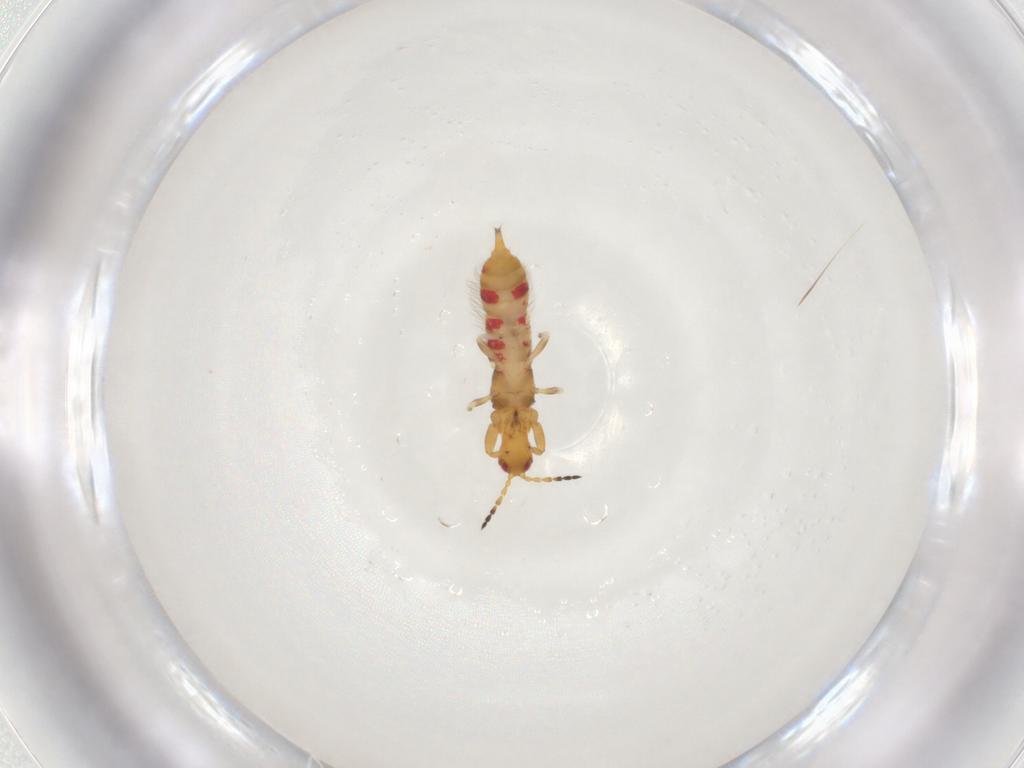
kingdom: Animalia
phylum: Arthropoda
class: Insecta
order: Thysanoptera
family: Phlaeothripidae
